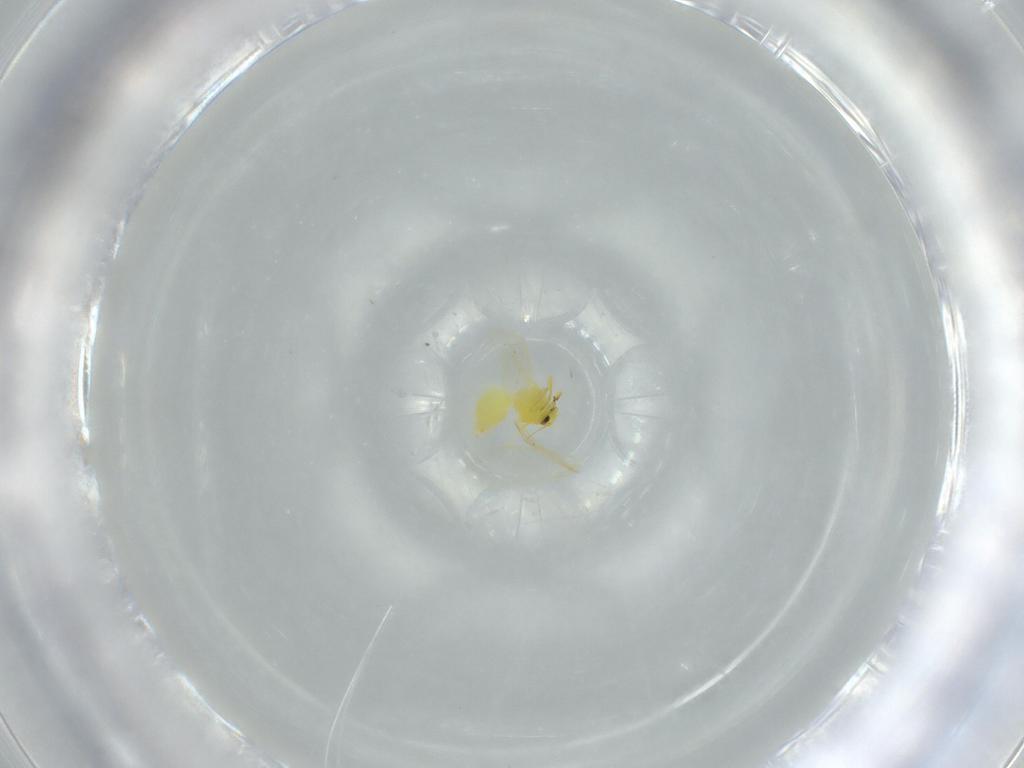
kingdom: Animalia
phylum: Arthropoda
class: Insecta
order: Hemiptera
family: Aleyrodidae
